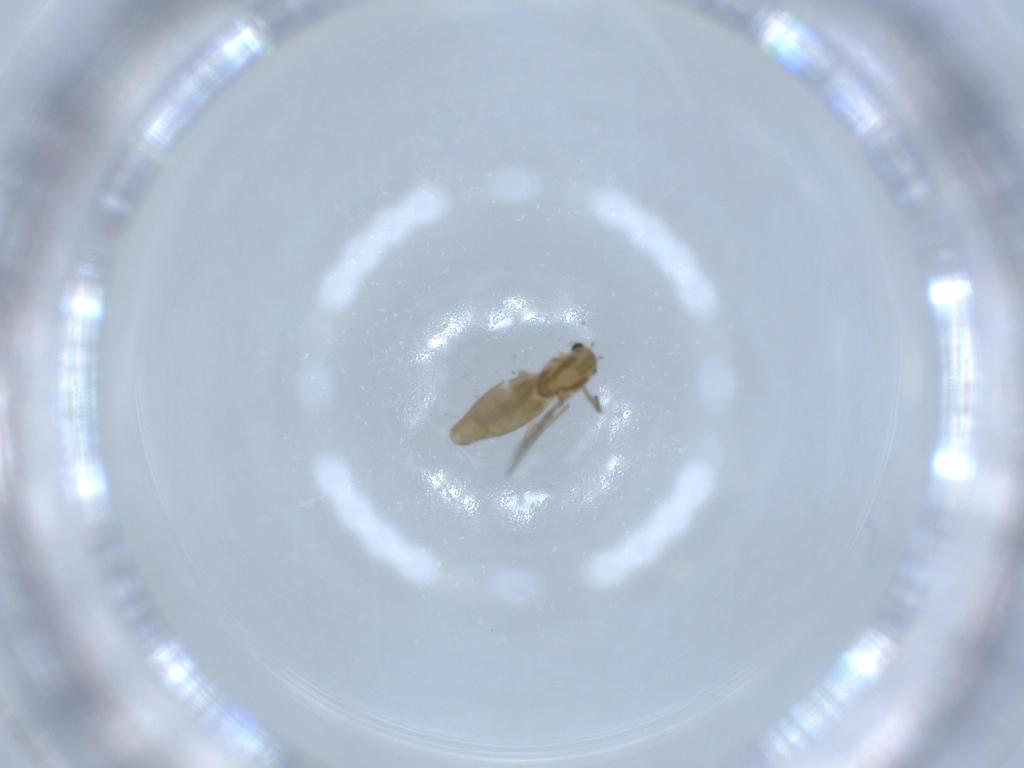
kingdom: Animalia
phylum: Arthropoda
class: Insecta
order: Diptera
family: Chironomidae
